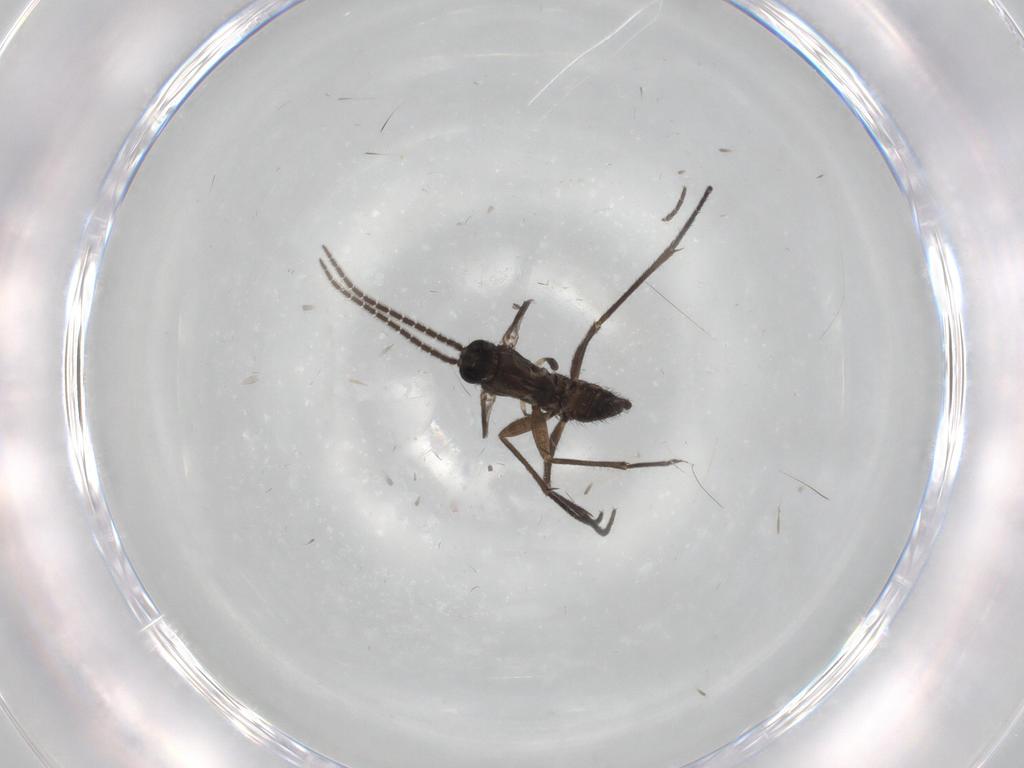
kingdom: Animalia
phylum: Arthropoda
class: Insecta
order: Diptera
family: Sciaridae
